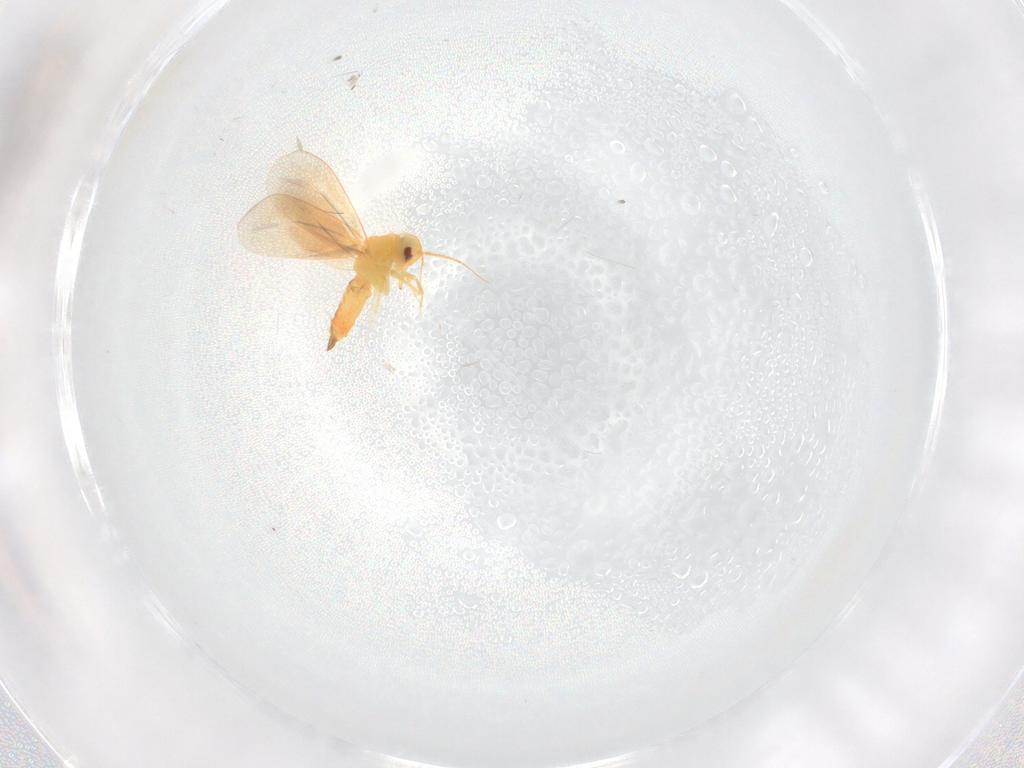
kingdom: Animalia
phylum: Arthropoda
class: Insecta
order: Hemiptera
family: Aleyrodidae
